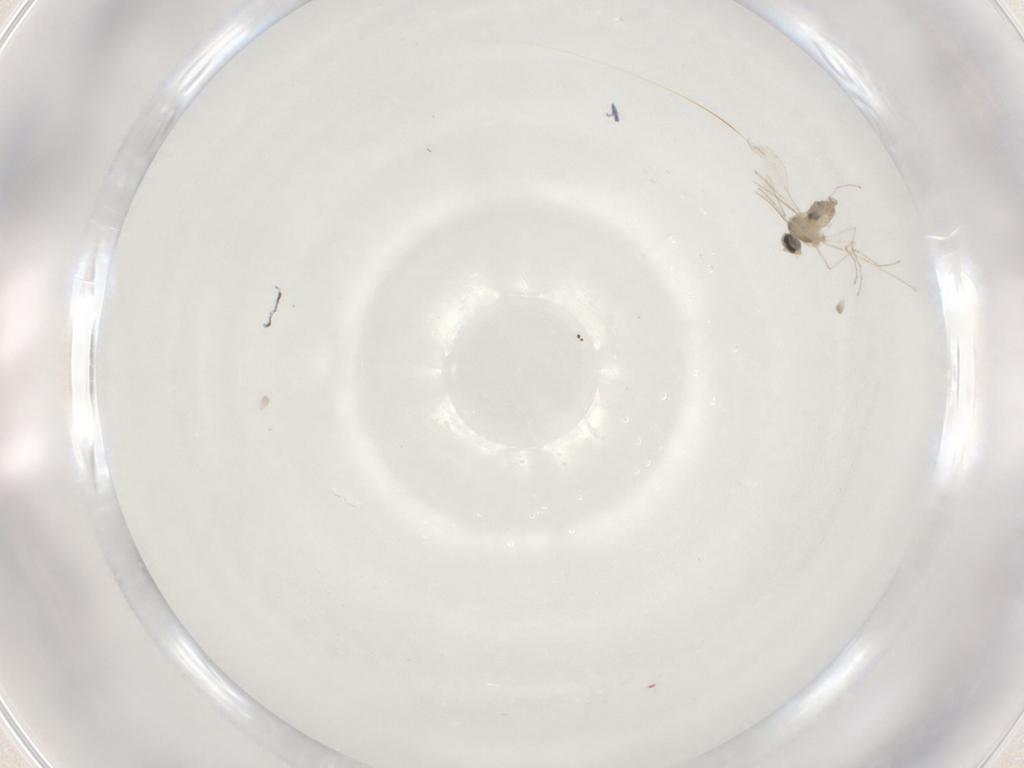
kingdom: Animalia
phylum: Arthropoda
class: Insecta
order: Diptera
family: Cecidomyiidae
